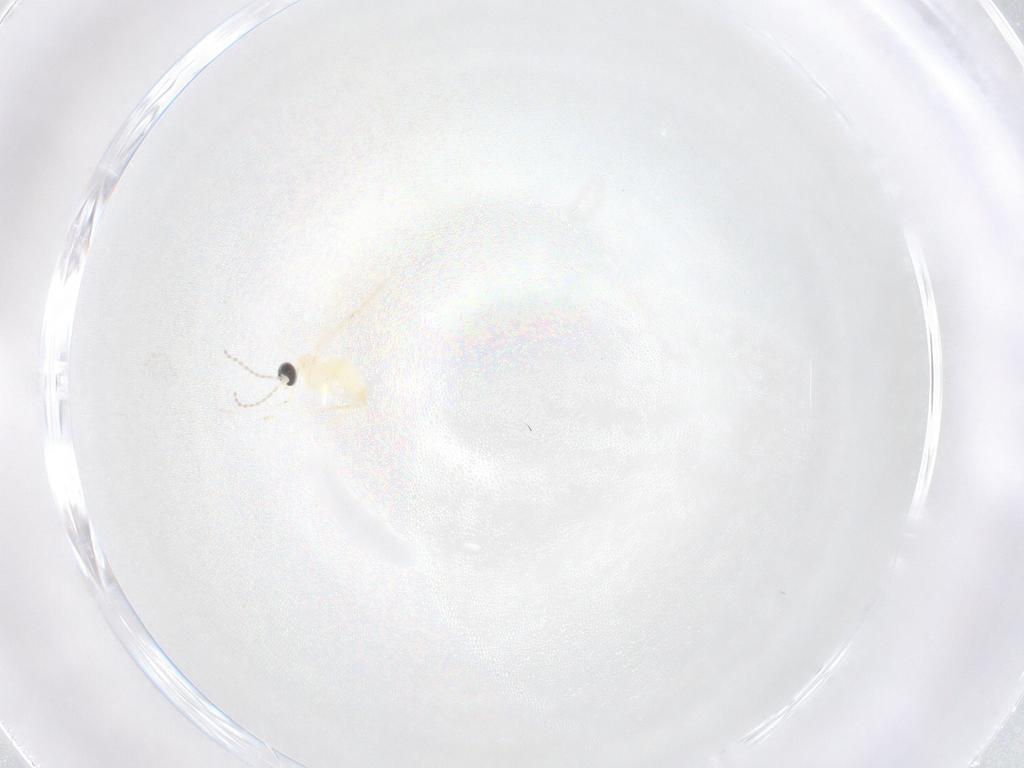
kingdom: Animalia
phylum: Arthropoda
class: Insecta
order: Diptera
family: Cecidomyiidae
